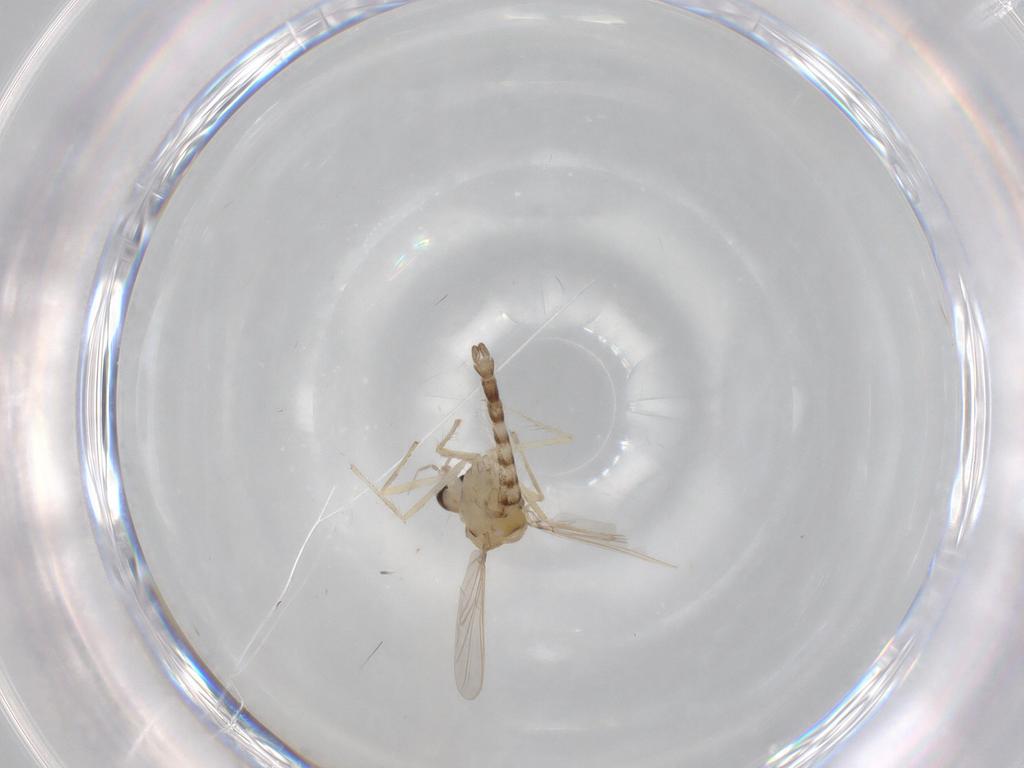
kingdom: Animalia
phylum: Arthropoda
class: Insecta
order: Diptera
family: Chironomidae
